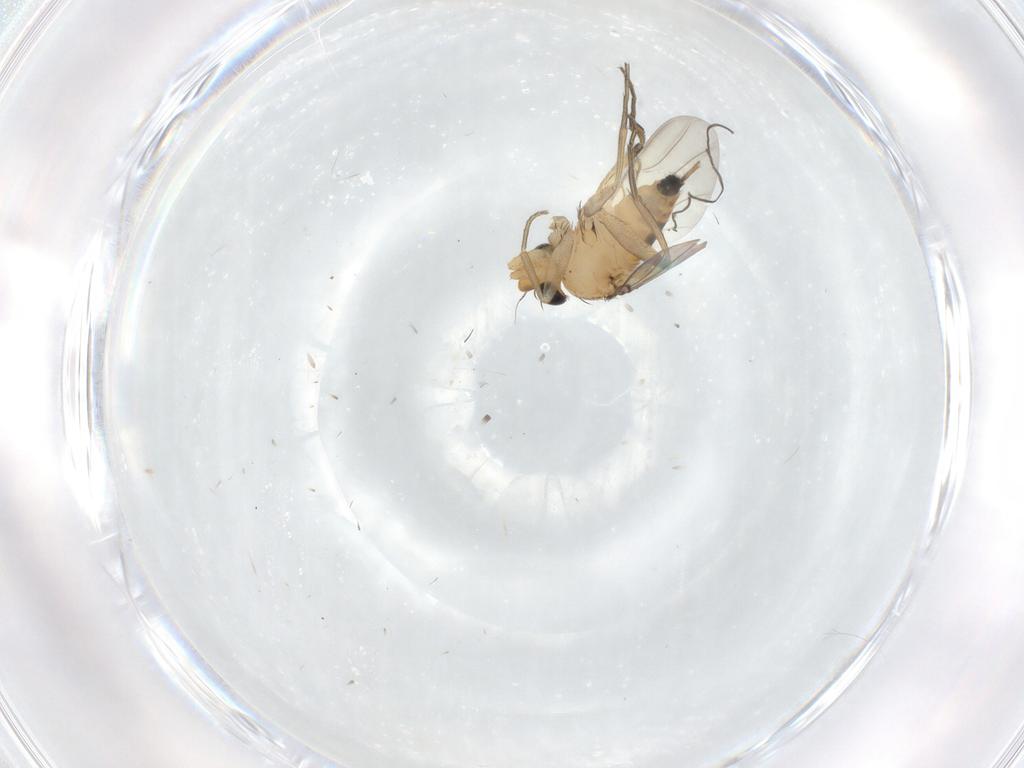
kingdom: Animalia
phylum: Arthropoda
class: Insecta
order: Diptera
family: Phoridae
